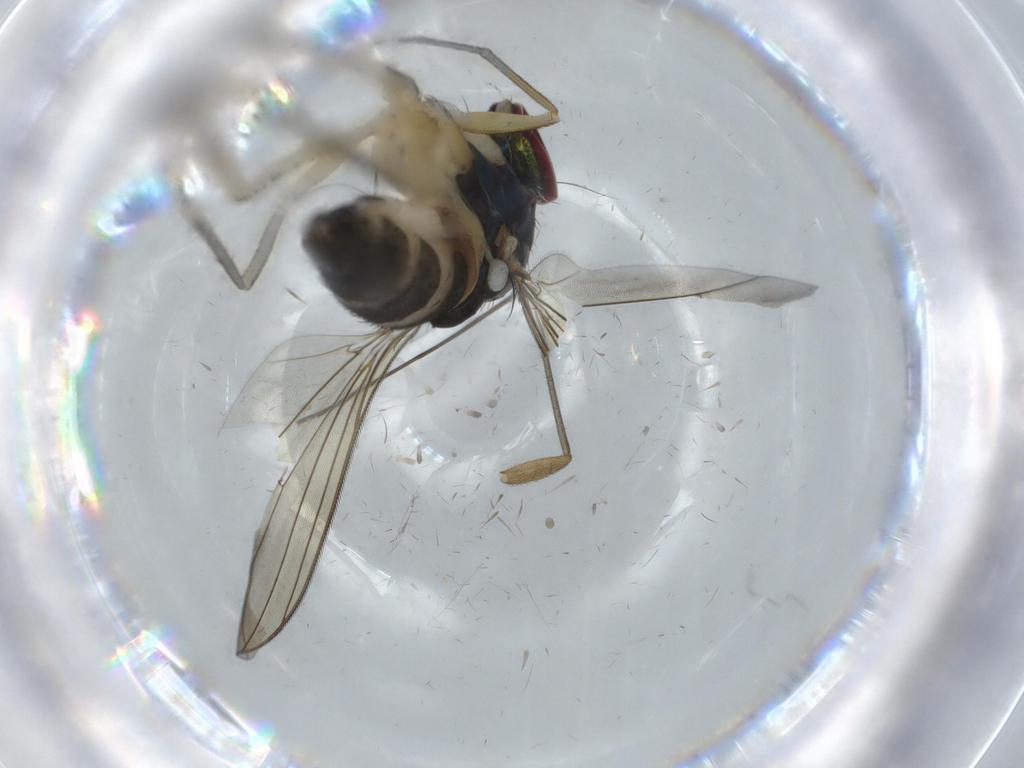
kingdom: Animalia
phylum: Arthropoda
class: Insecta
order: Diptera
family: Dolichopodidae
